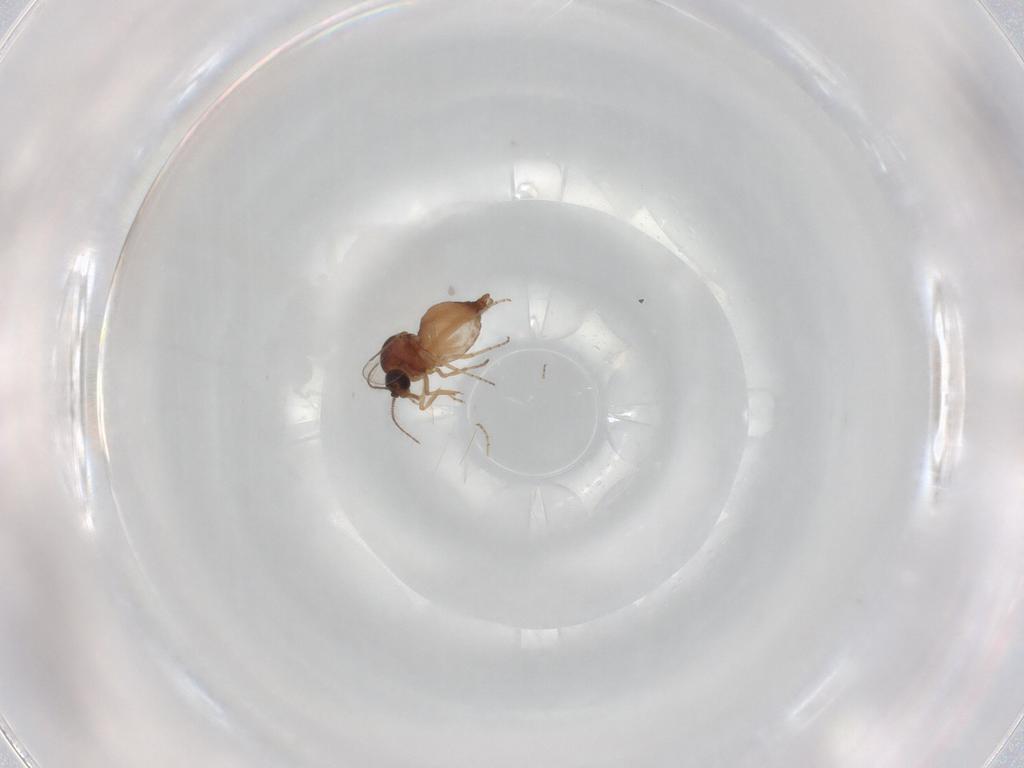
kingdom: Animalia
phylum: Arthropoda
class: Insecta
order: Diptera
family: Ceratopogonidae
